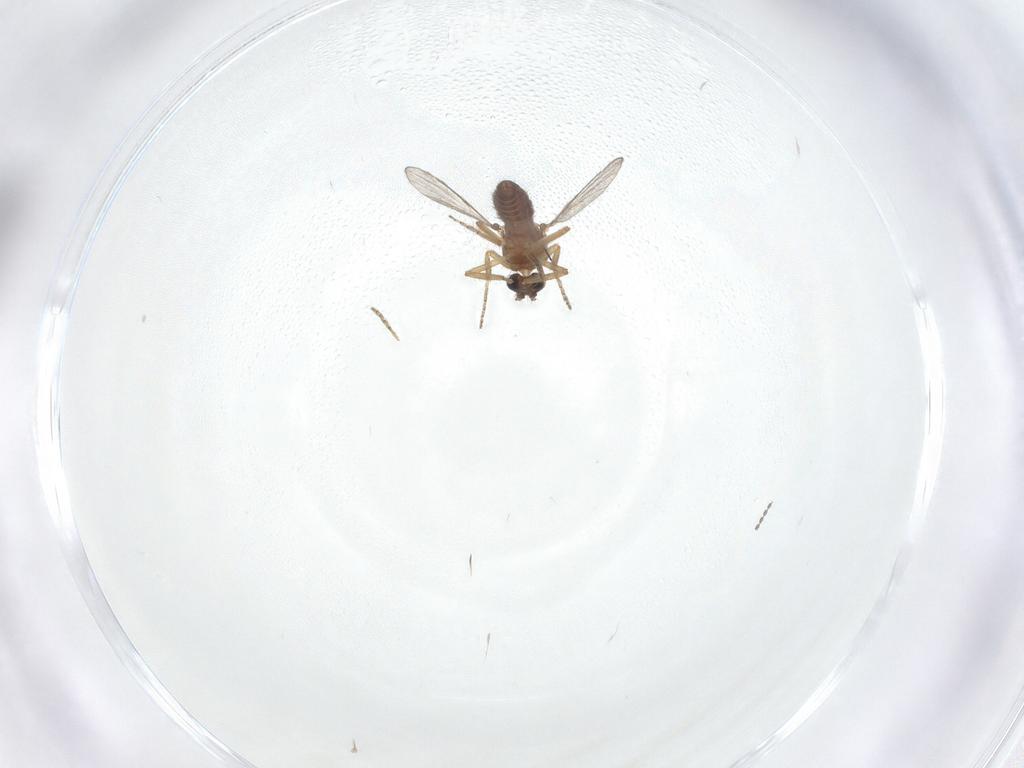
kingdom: Animalia
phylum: Arthropoda
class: Insecta
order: Diptera
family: Ceratopogonidae
